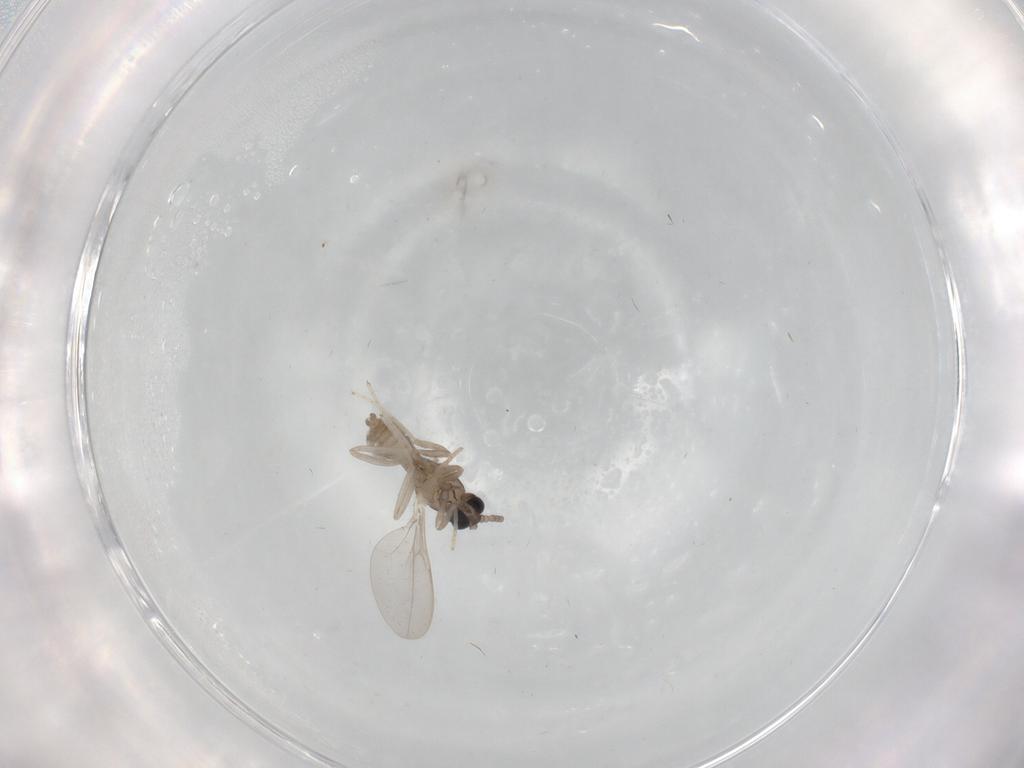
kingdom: Animalia
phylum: Arthropoda
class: Insecta
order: Diptera
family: Cecidomyiidae
